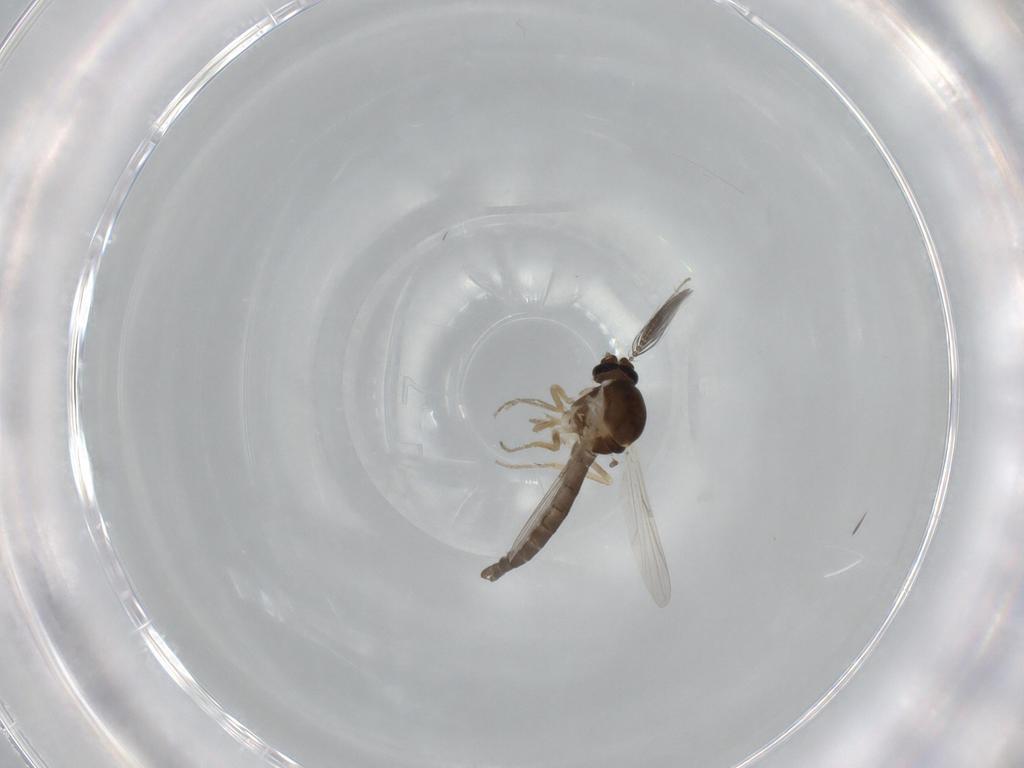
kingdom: Animalia
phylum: Arthropoda
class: Insecta
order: Diptera
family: Ceratopogonidae
